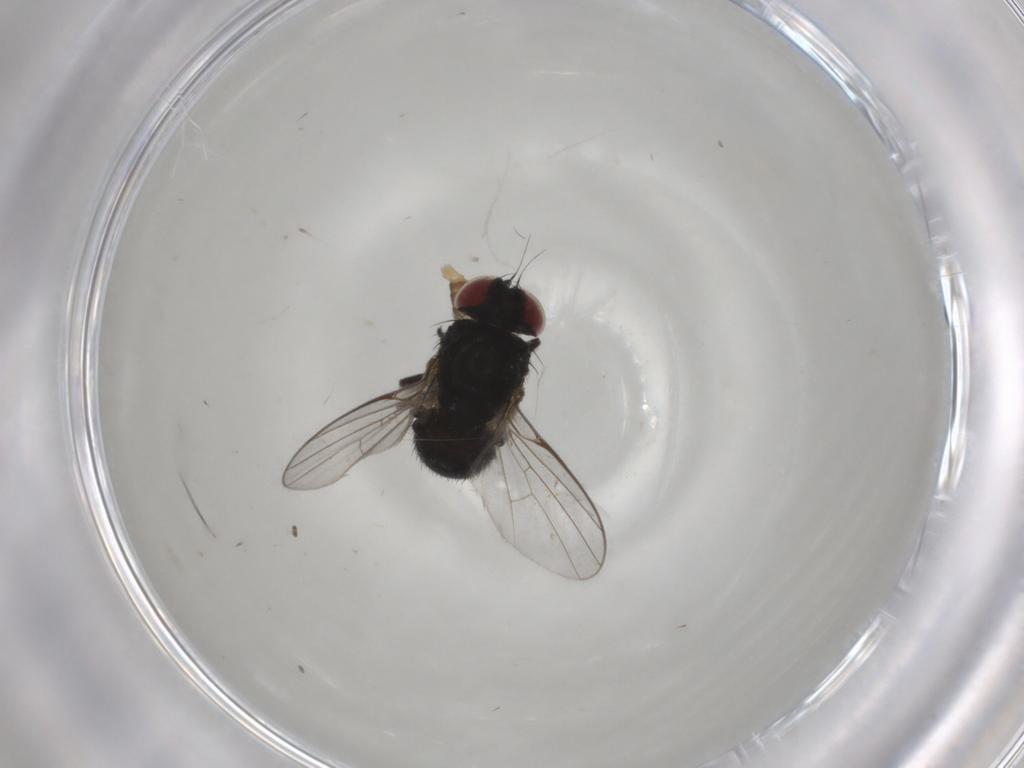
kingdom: Animalia
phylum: Arthropoda
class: Insecta
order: Diptera
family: Agromyzidae
